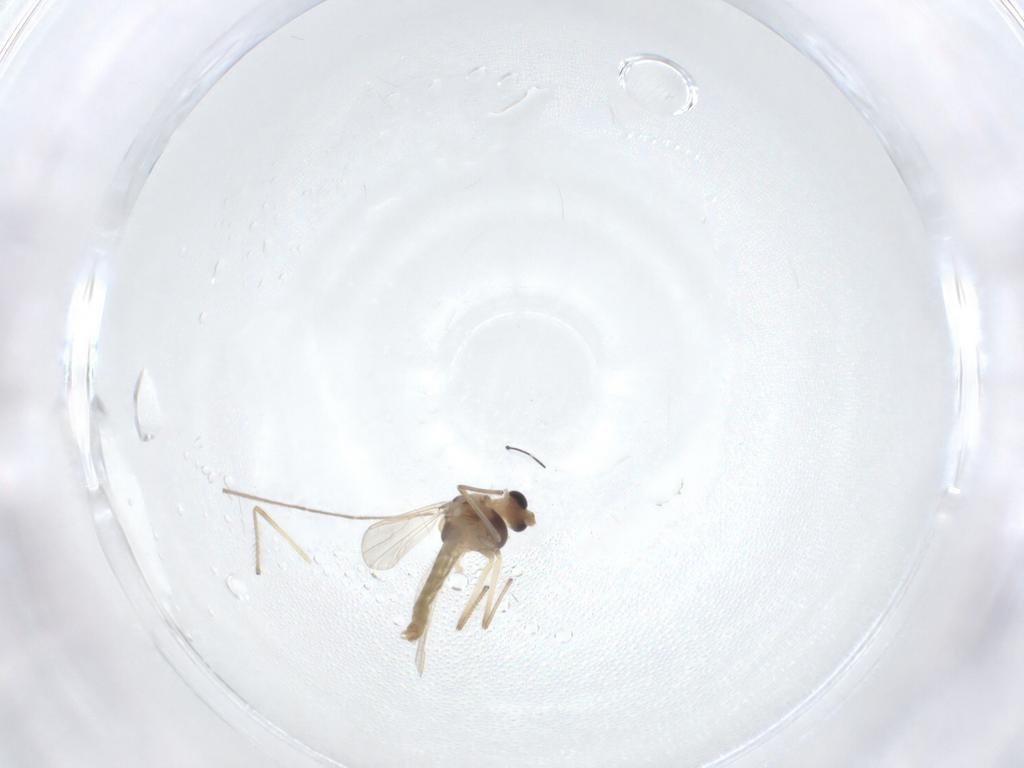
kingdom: Animalia
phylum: Arthropoda
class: Insecta
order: Diptera
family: Chironomidae
